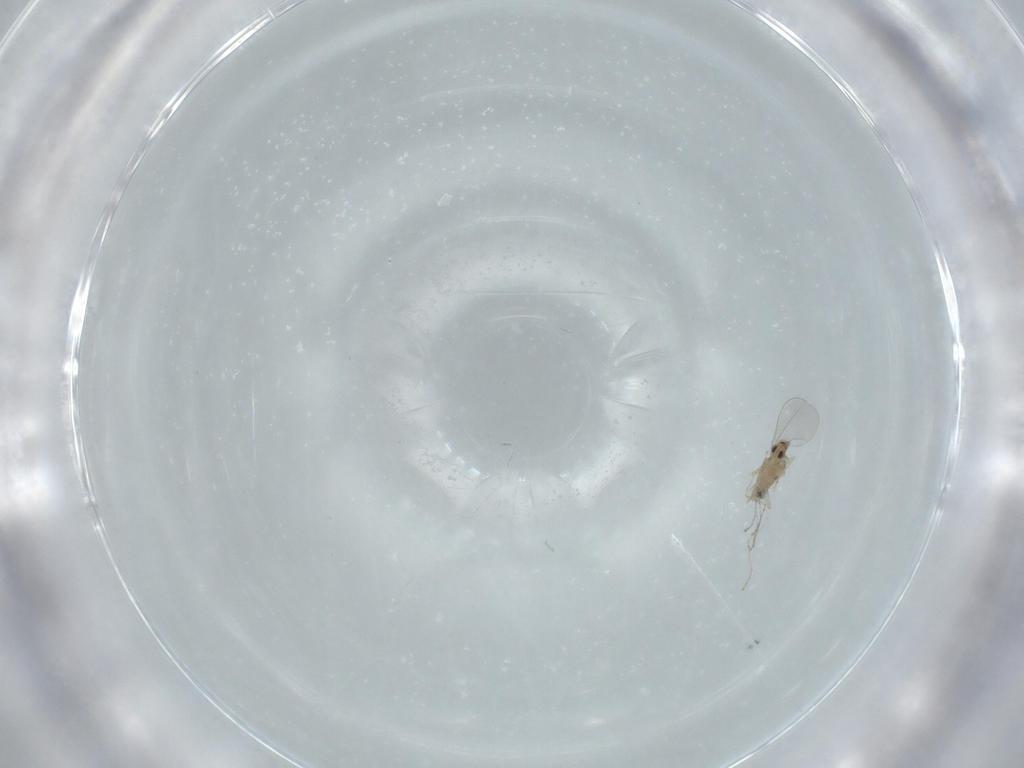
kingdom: Animalia
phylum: Arthropoda
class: Insecta
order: Diptera
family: Cecidomyiidae
